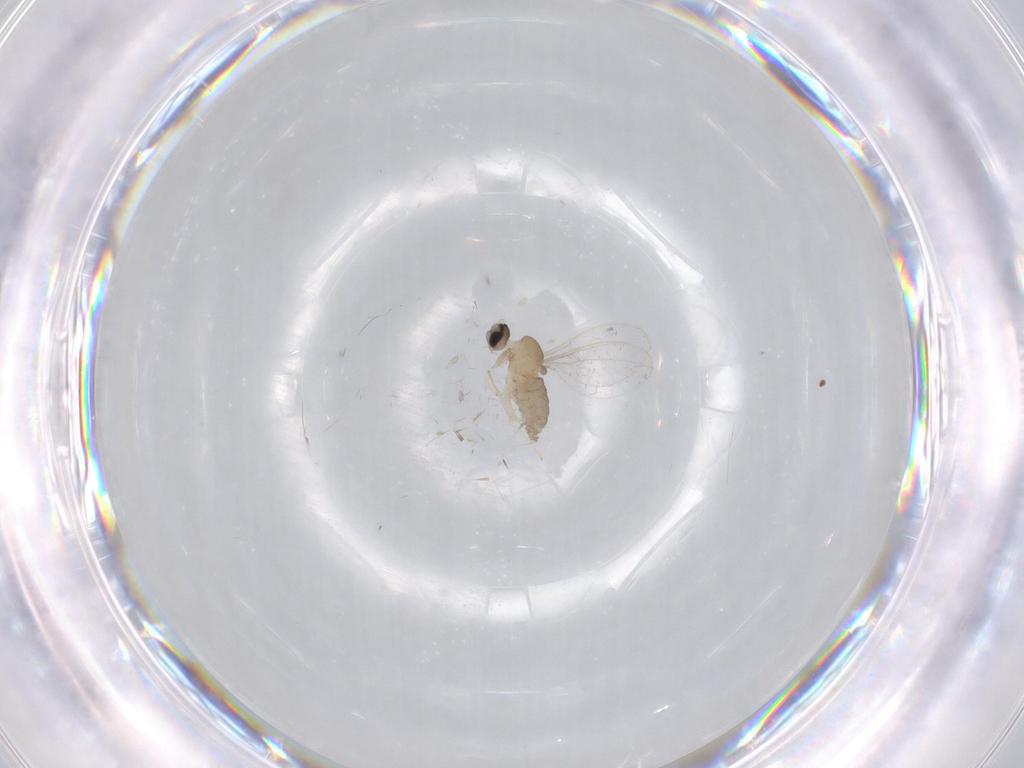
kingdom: Animalia
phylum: Arthropoda
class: Insecta
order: Diptera
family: Cecidomyiidae
